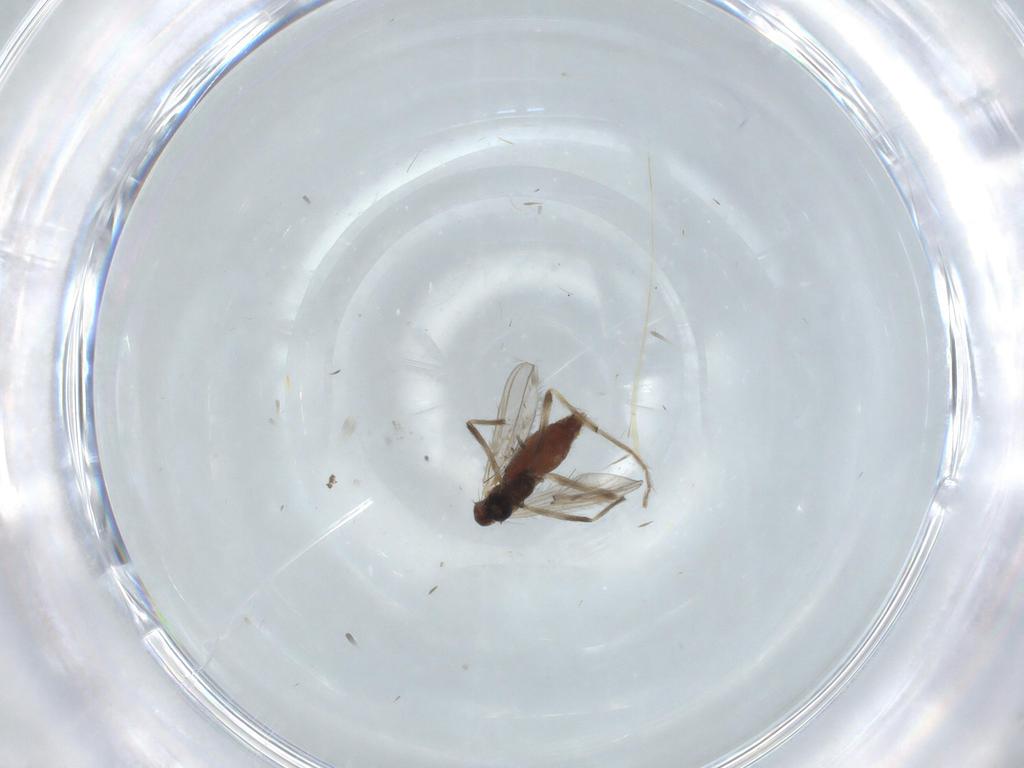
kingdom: Animalia
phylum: Arthropoda
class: Insecta
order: Diptera
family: Chironomidae
